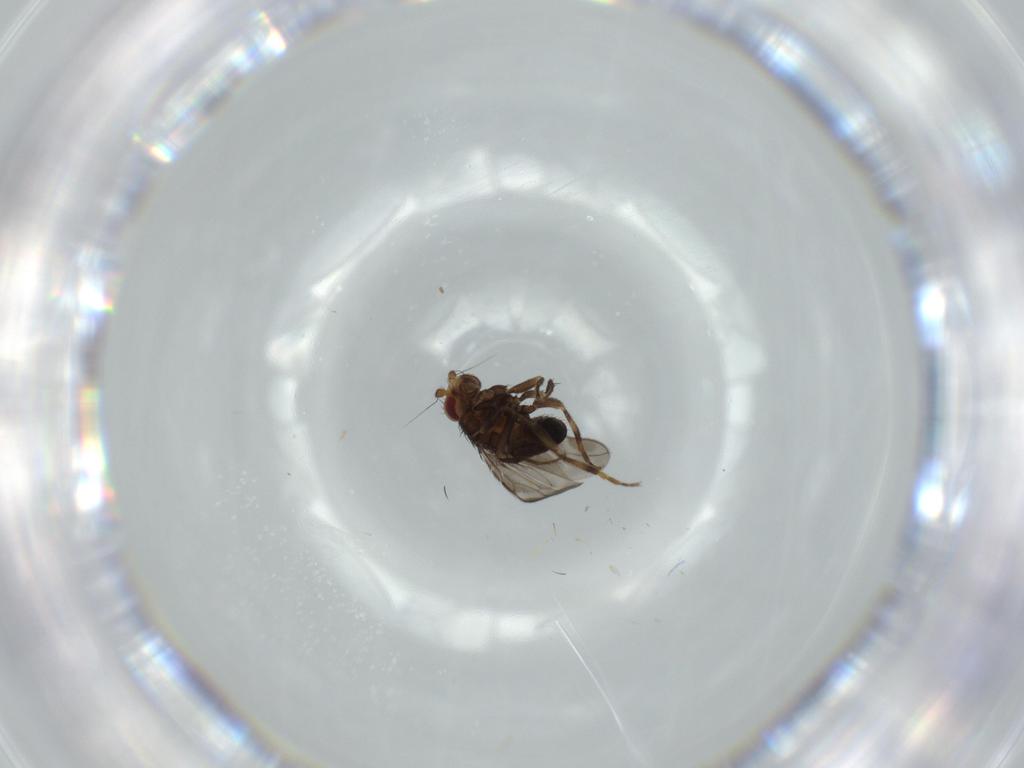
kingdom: Animalia
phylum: Arthropoda
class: Insecta
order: Diptera
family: Sphaeroceridae
